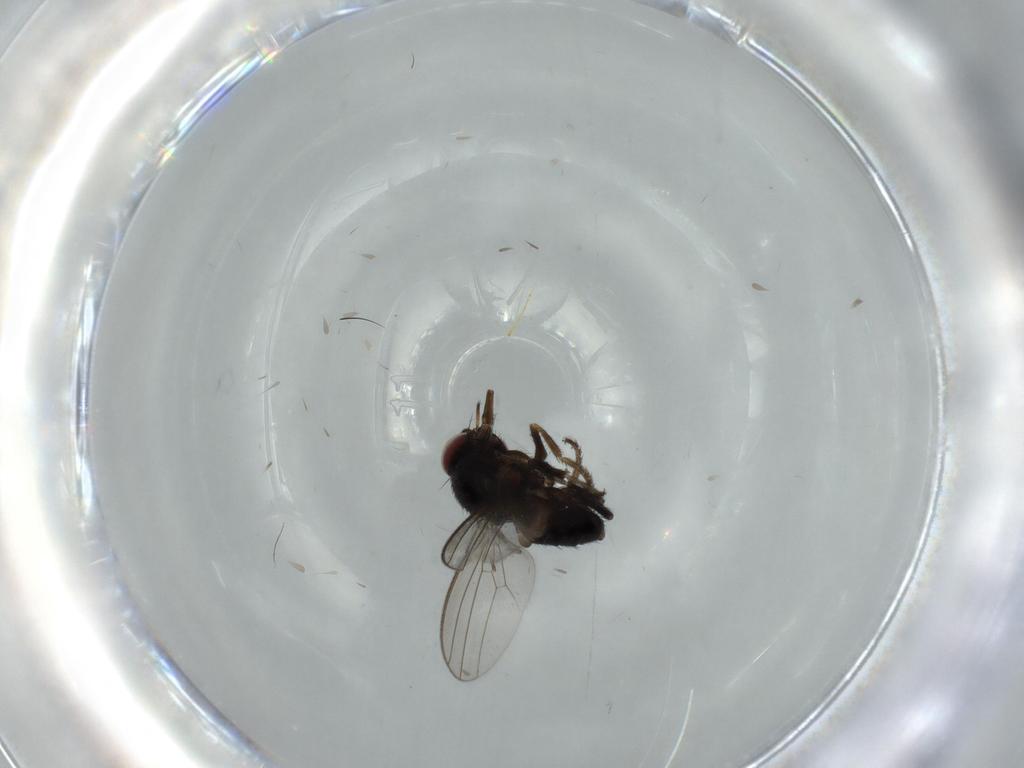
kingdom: Animalia
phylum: Arthropoda
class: Insecta
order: Diptera
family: Milichiidae
